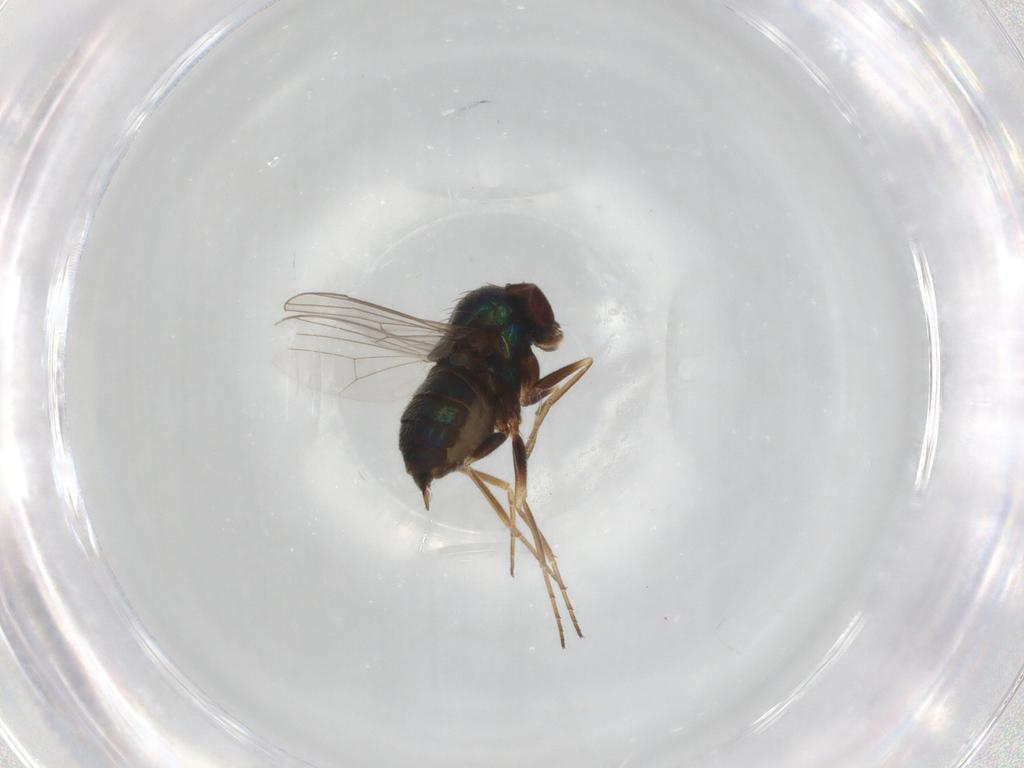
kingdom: Animalia
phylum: Arthropoda
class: Insecta
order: Diptera
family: Dolichopodidae
